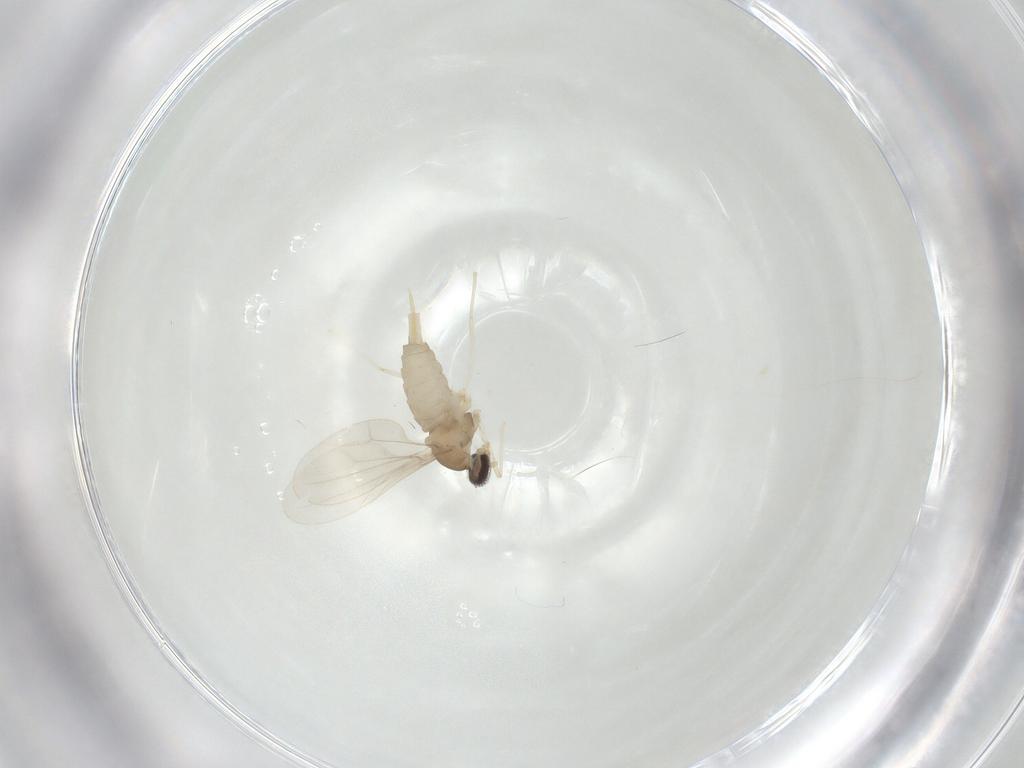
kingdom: Animalia
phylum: Arthropoda
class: Insecta
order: Diptera
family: Cecidomyiidae
